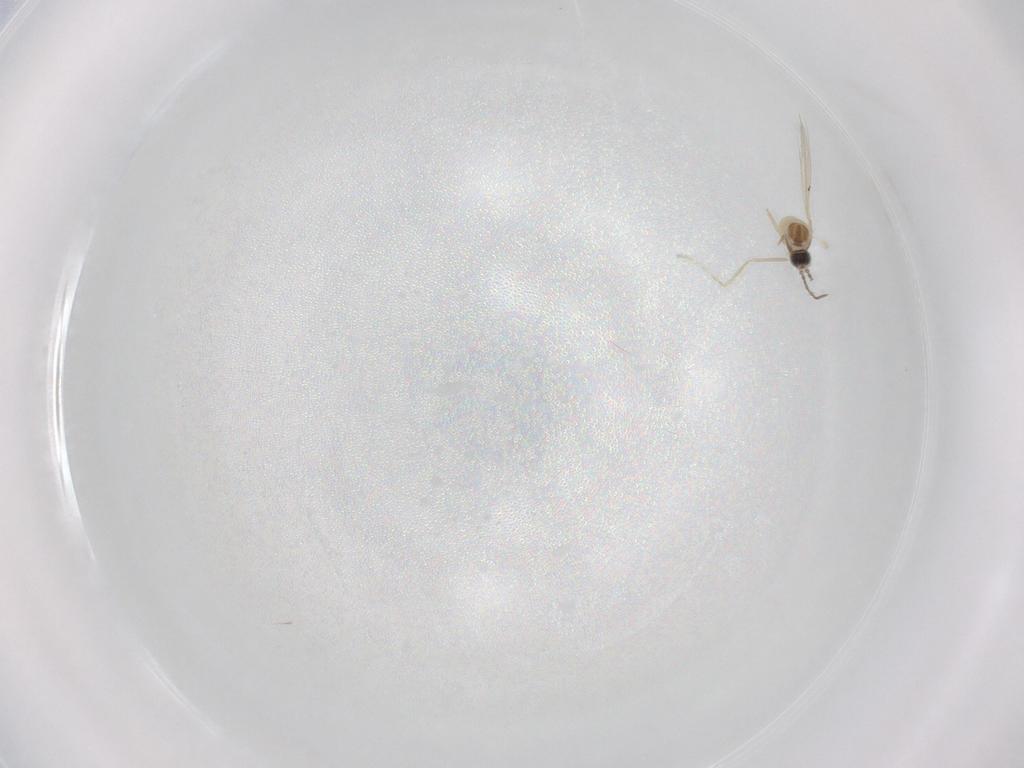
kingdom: Animalia
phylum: Arthropoda
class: Insecta
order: Diptera
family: Cecidomyiidae
